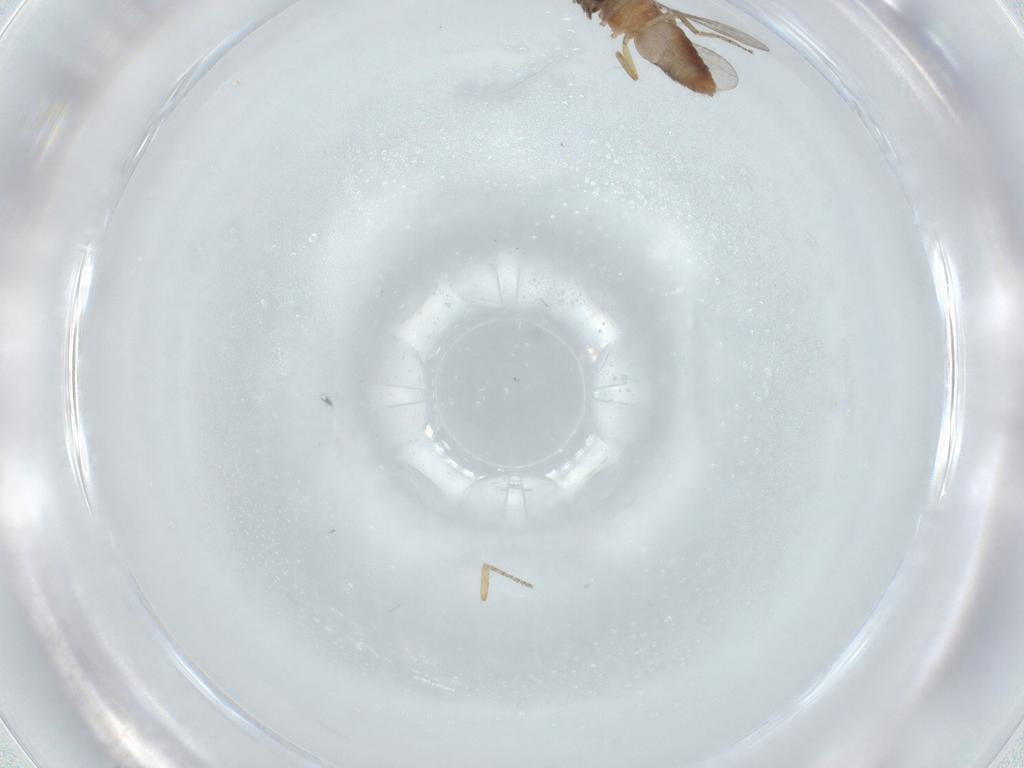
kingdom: Animalia
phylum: Arthropoda
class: Insecta
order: Diptera
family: Ceratopogonidae
